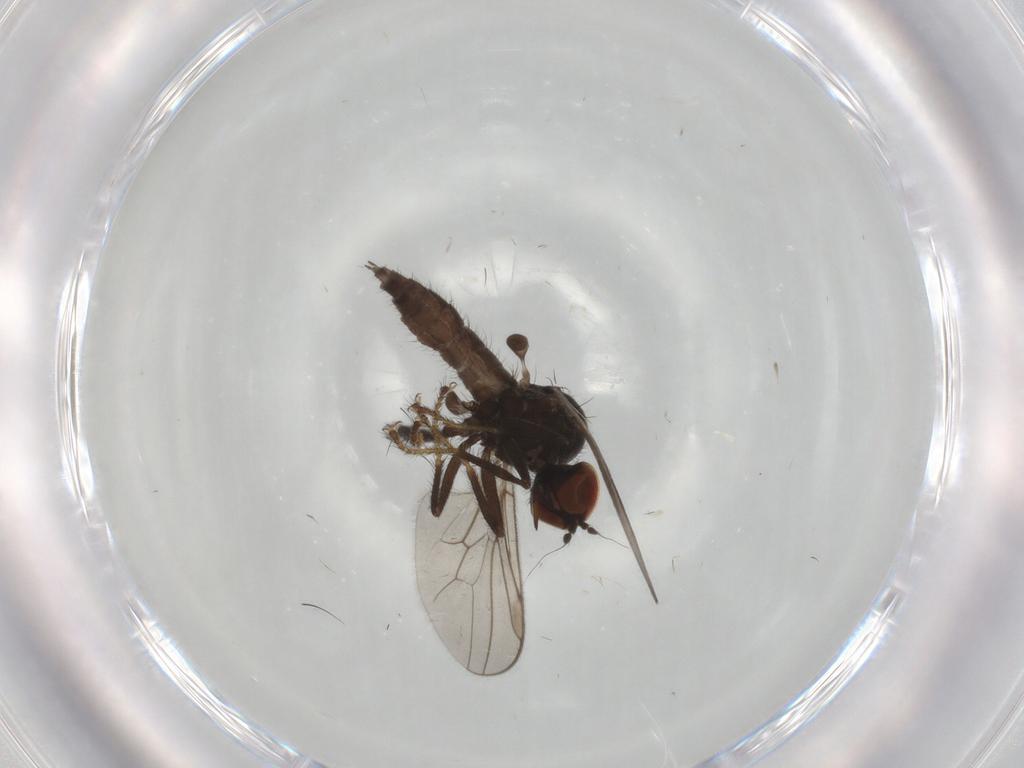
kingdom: Animalia
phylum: Arthropoda
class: Insecta
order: Diptera
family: Hybotidae
